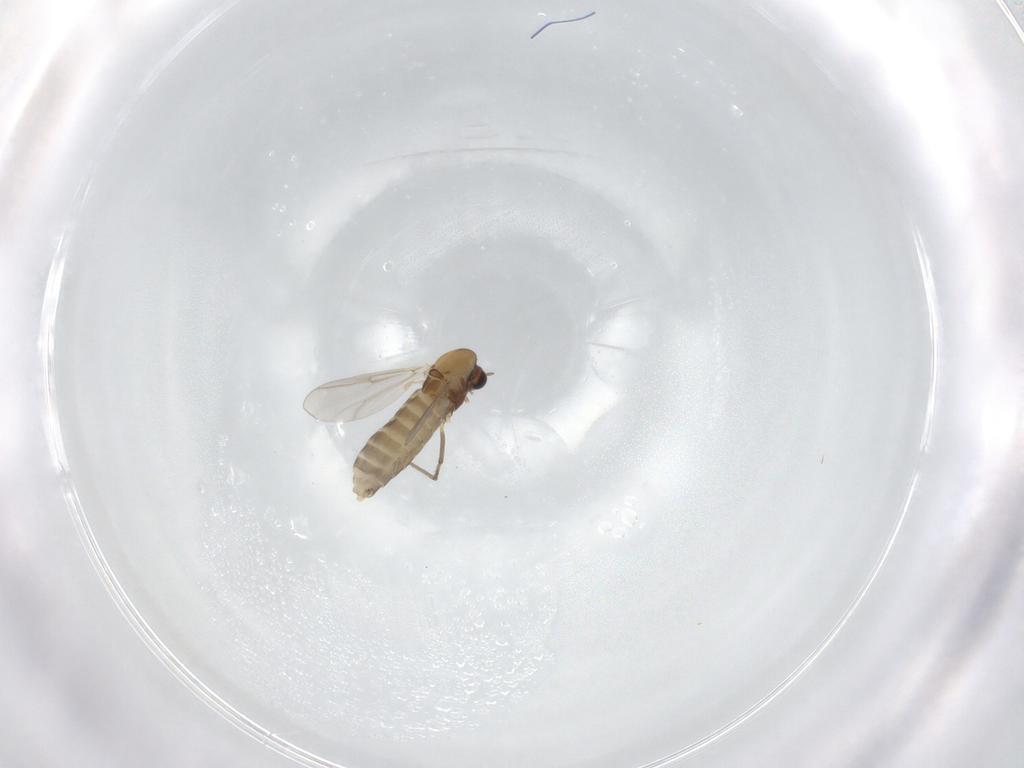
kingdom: Animalia
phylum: Arthropoda
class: Insecta
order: Diptera
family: Chironomidae
